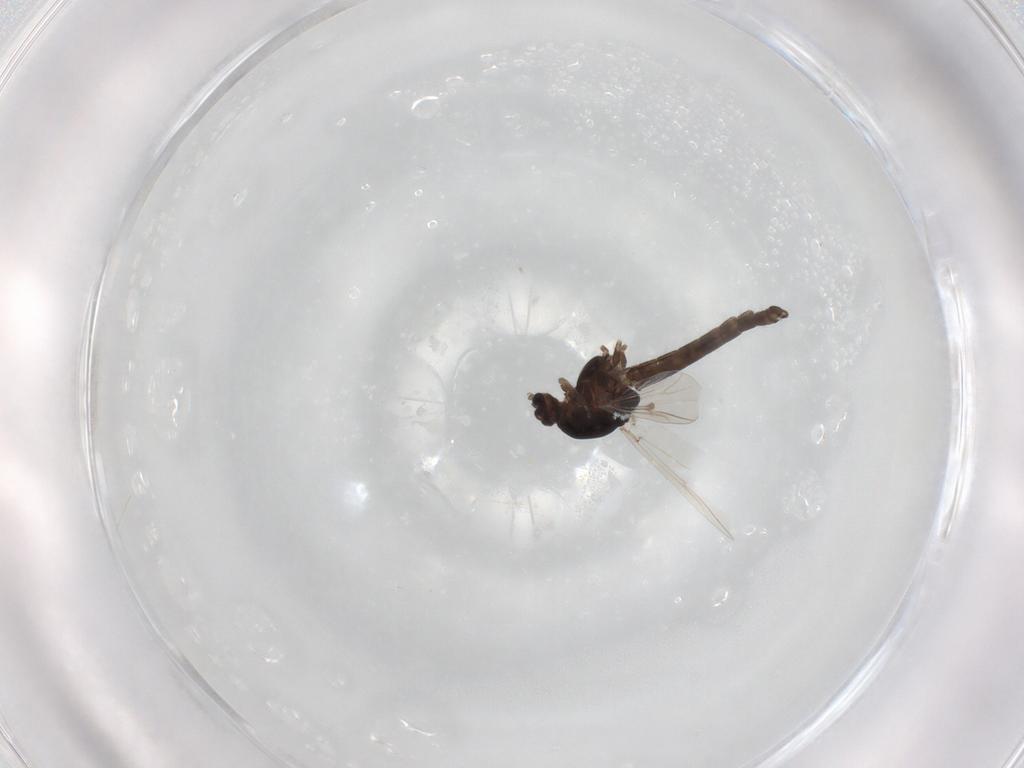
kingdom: Animalia
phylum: Arthropoda
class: Insecta
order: Diptera
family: Chironomidae
